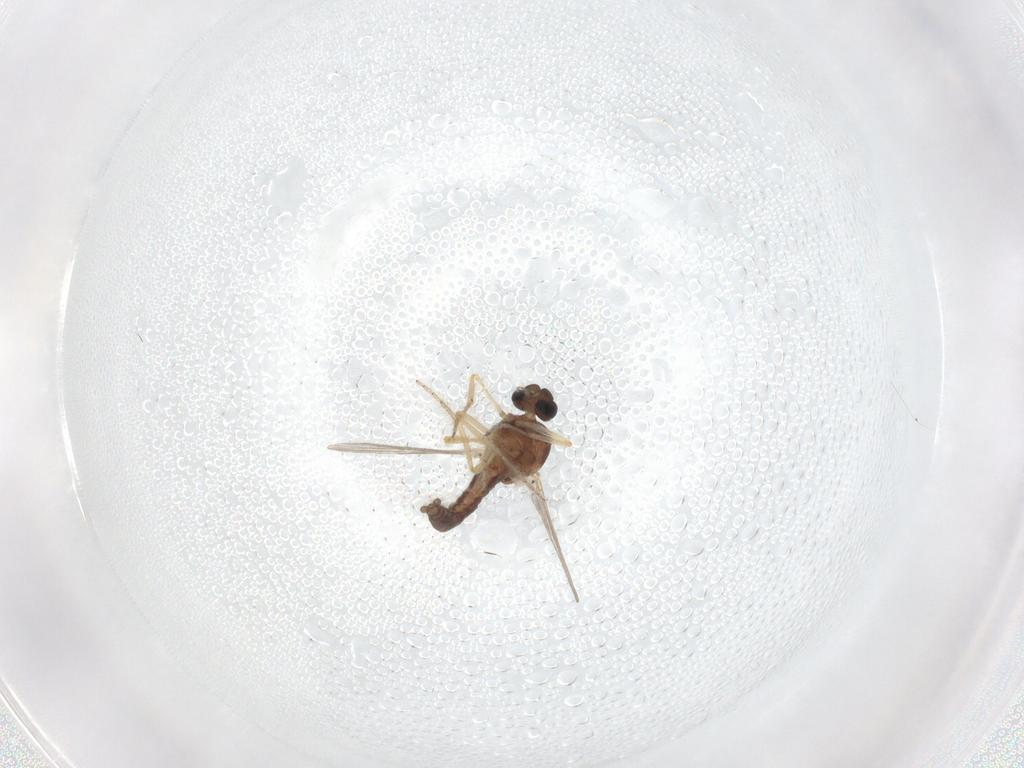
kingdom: Animalia
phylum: Arthropoda
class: Insecta
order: Diptera
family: Ceratopogonidae
